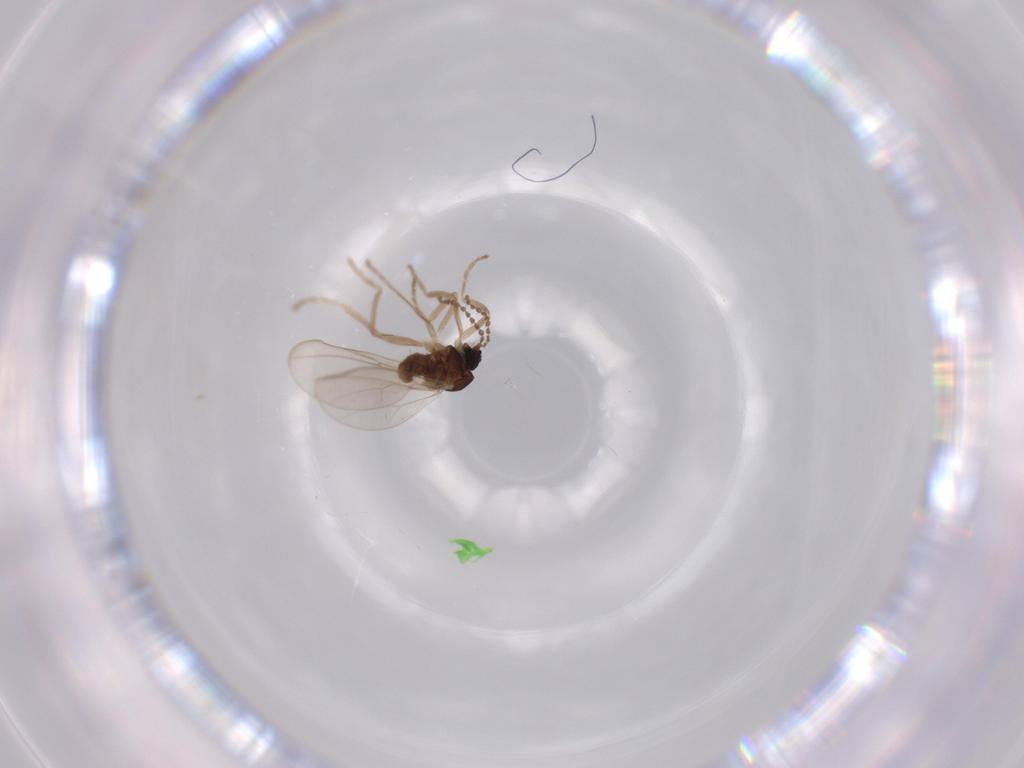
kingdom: Animalia
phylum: Arthropoda
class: Insecta
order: Diptera
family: Cecidomyiidae
